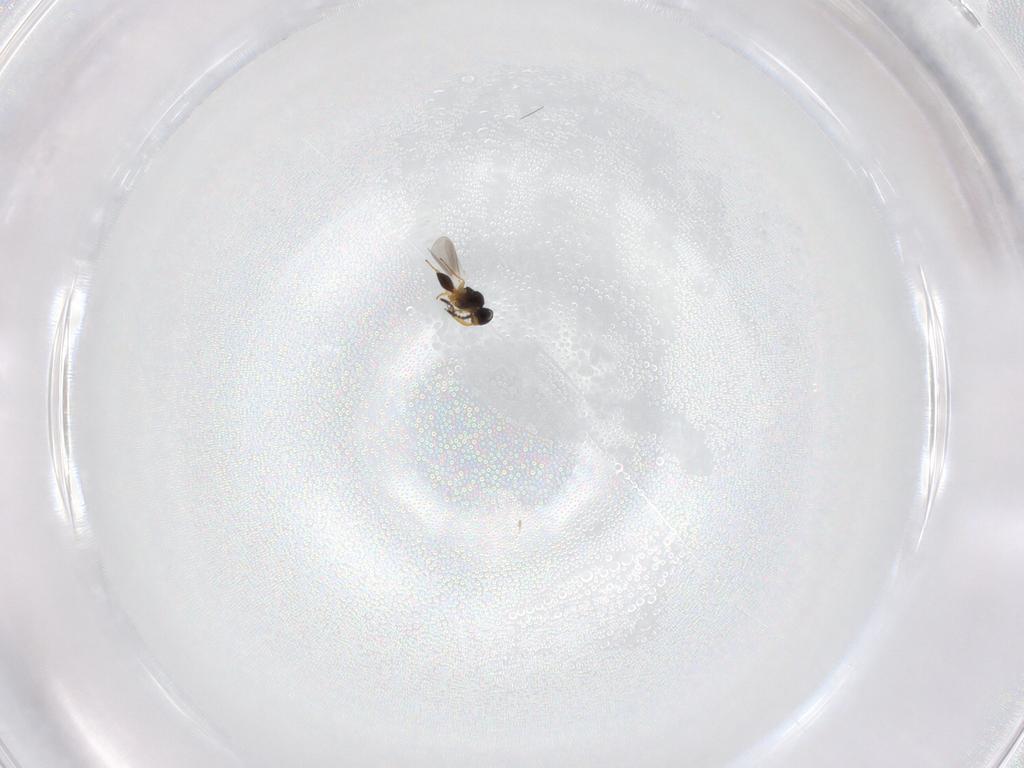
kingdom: Animalia
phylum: Arthropoda
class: Insecta
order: Hymenoptera
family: Platygastridae
